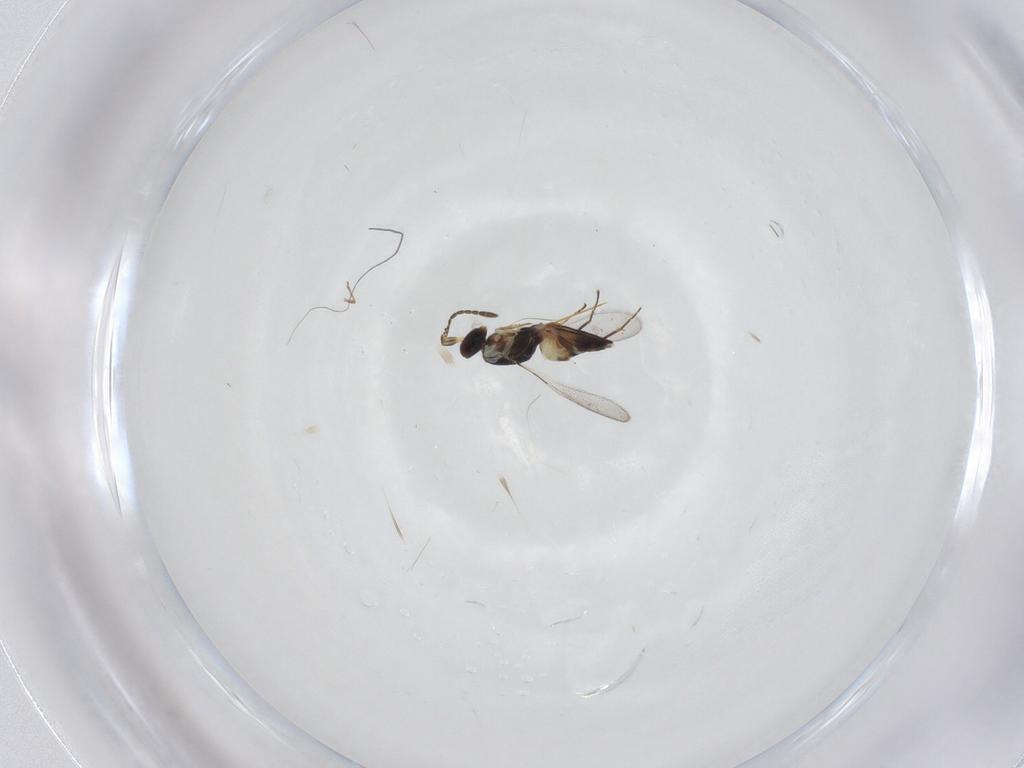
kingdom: Animalia
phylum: Arthropoda
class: Insecta
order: Hymenoptera
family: Mymaridae
